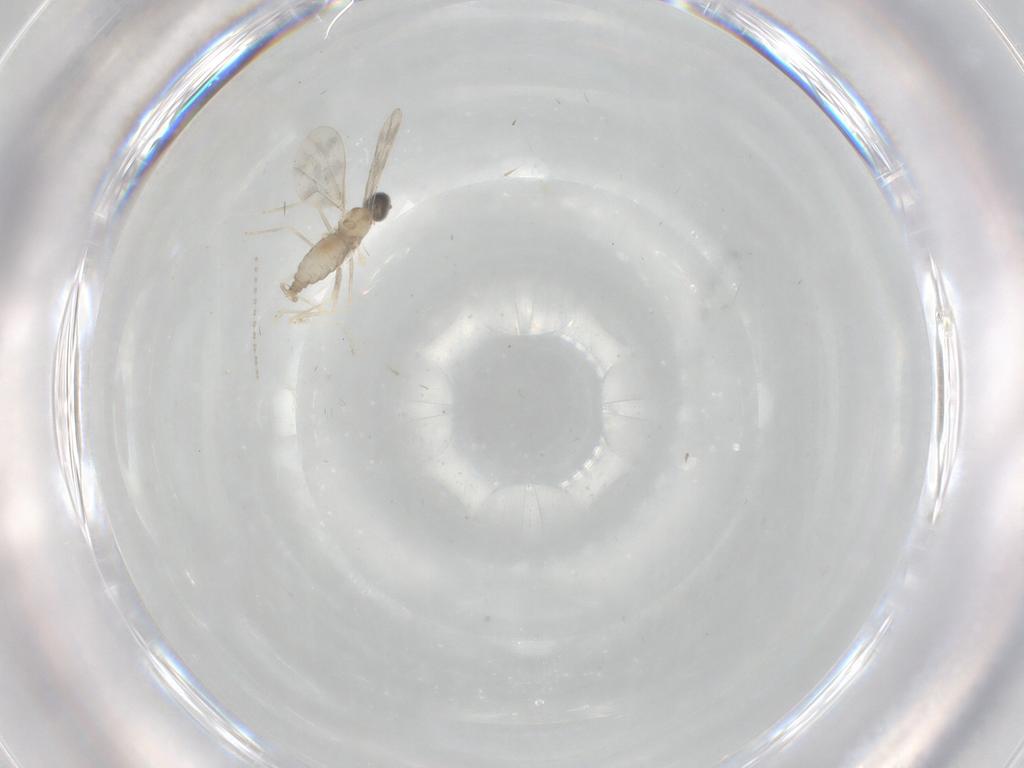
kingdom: Animalia
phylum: Arthropoda
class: Insecta
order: Diptera
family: Cecidomyiidae
